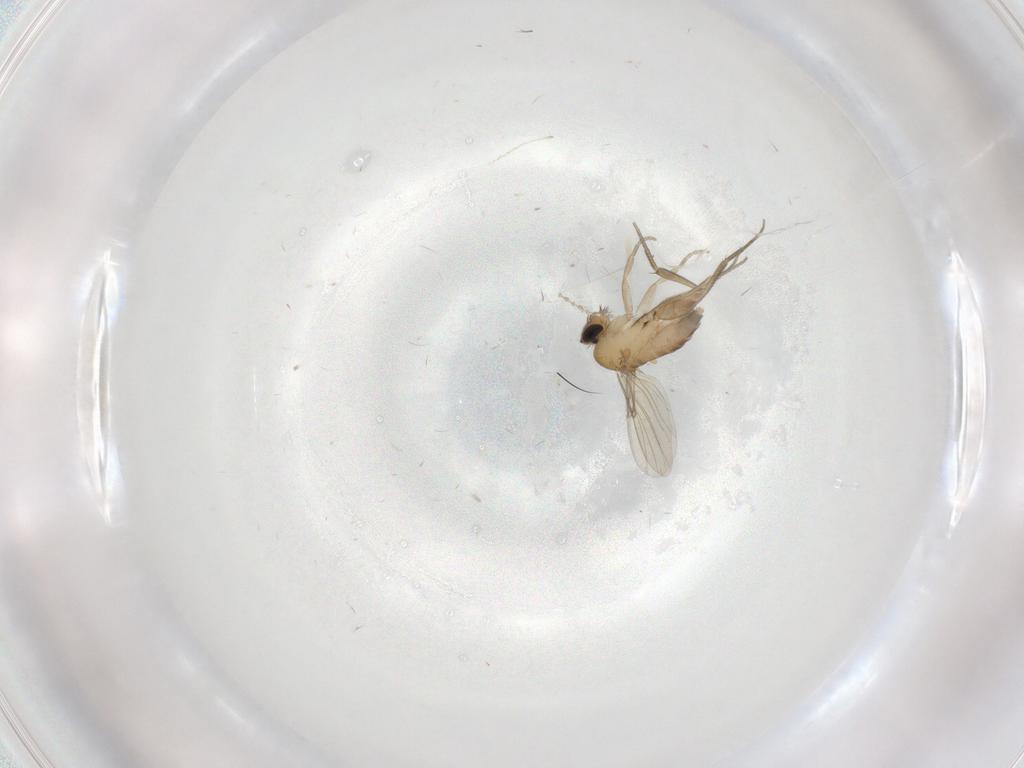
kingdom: Animalia
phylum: Arthropoda
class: Insecta
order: Diptera
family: Phoridae
